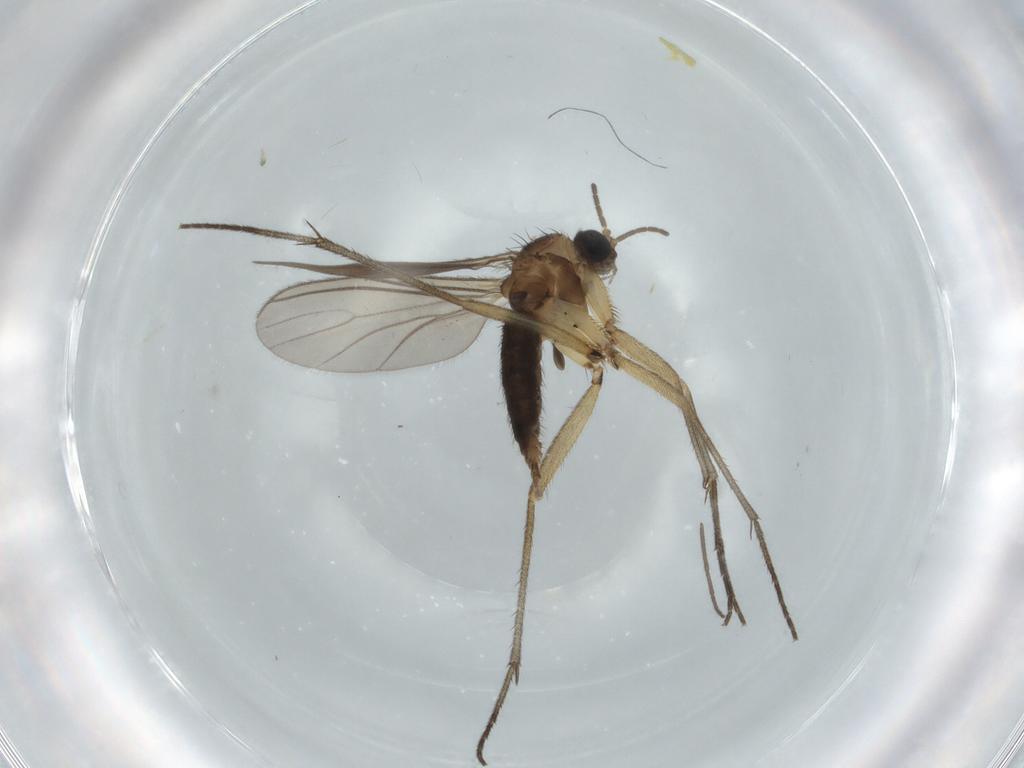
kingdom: Animalia
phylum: Arthropoda
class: Insecta
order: Diptera
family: Sciaridae
